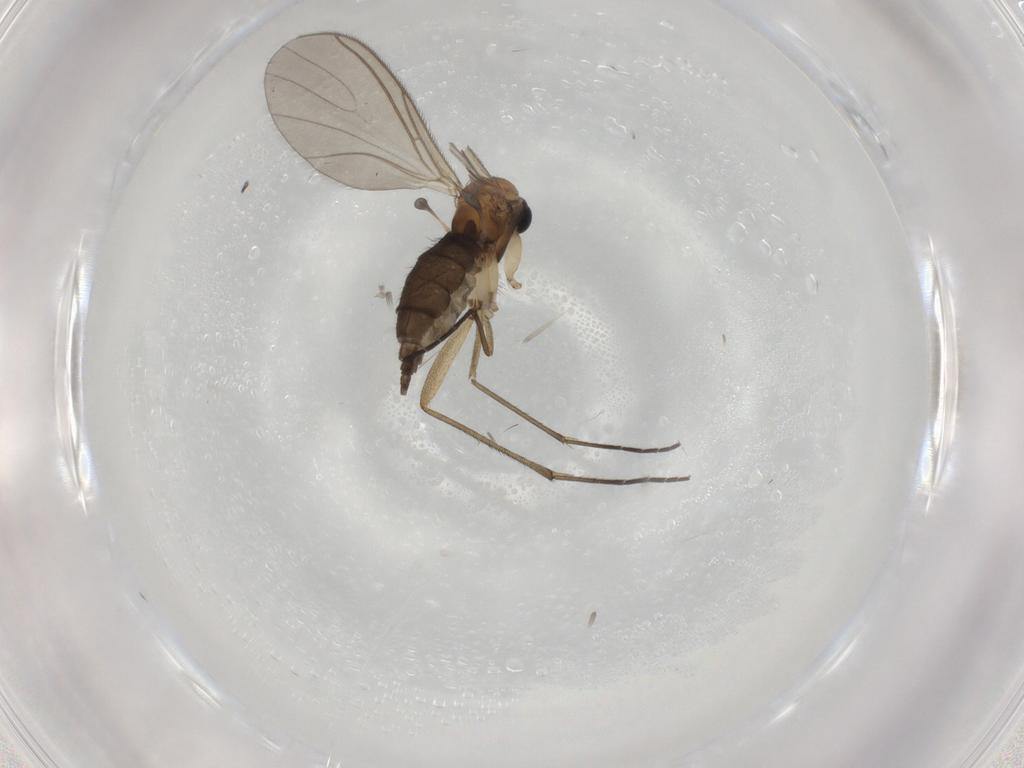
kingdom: Animalia
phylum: Arthropoda
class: Insecta
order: Diptera
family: Sciaridae
